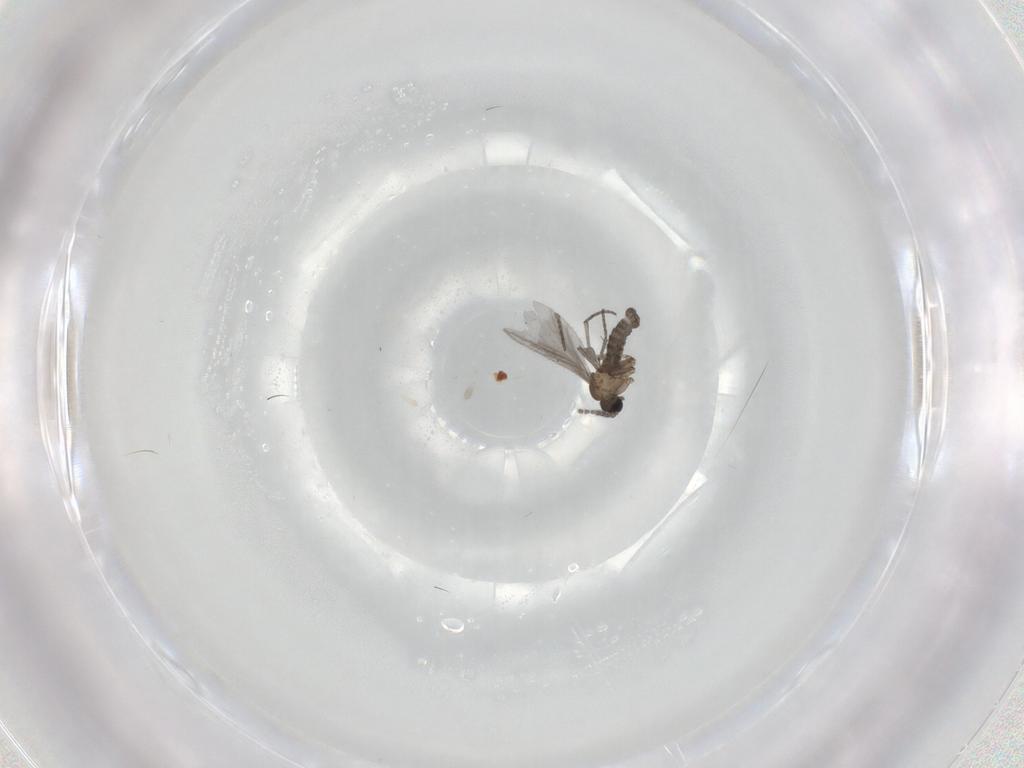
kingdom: Animalia
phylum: Arthropoda
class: Insecta
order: Diptera
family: Sciaridae
